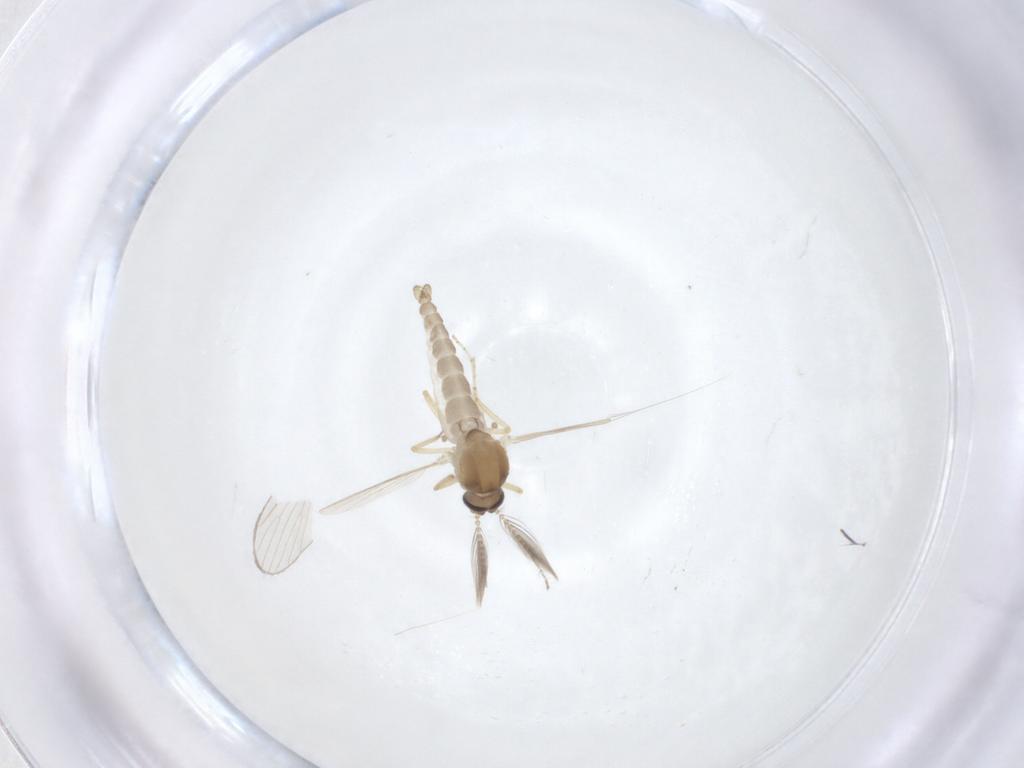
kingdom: Animalia
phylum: Arthropoda
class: Insecta
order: Diptera
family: Ceratopogonidae
